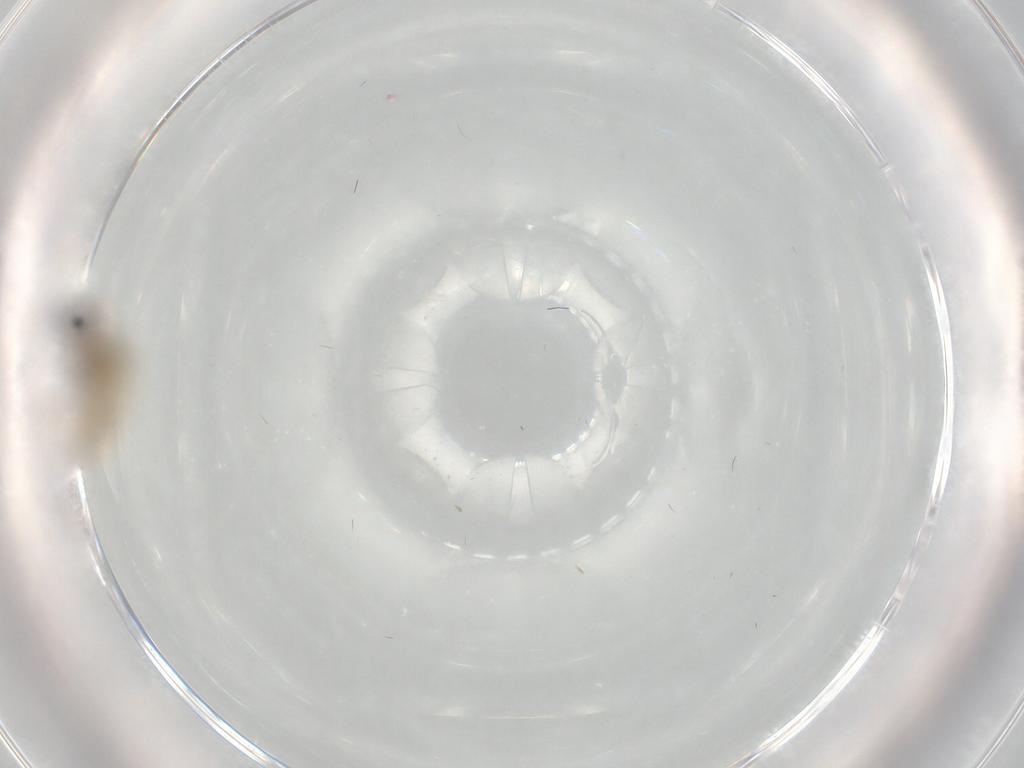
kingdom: Animalia
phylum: Arthropoda
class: Insecta
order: Diptera
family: Cecidomyiidae
